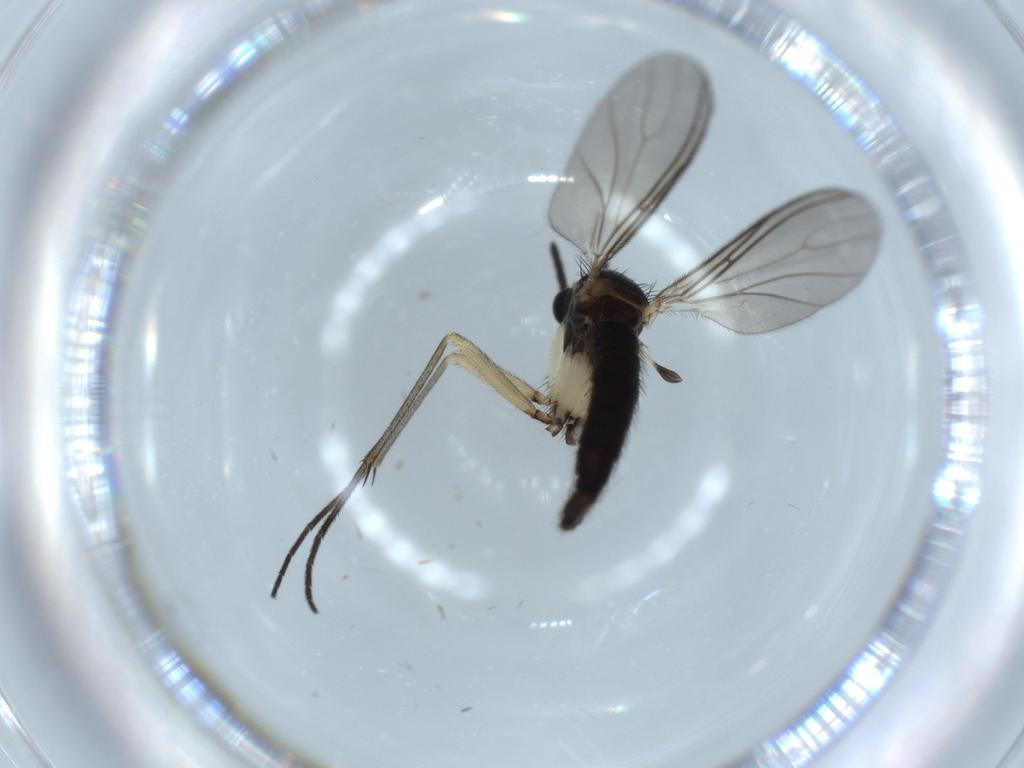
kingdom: Animalia
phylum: Arthropoda
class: Insecta
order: Diptera
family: Sciaridae
